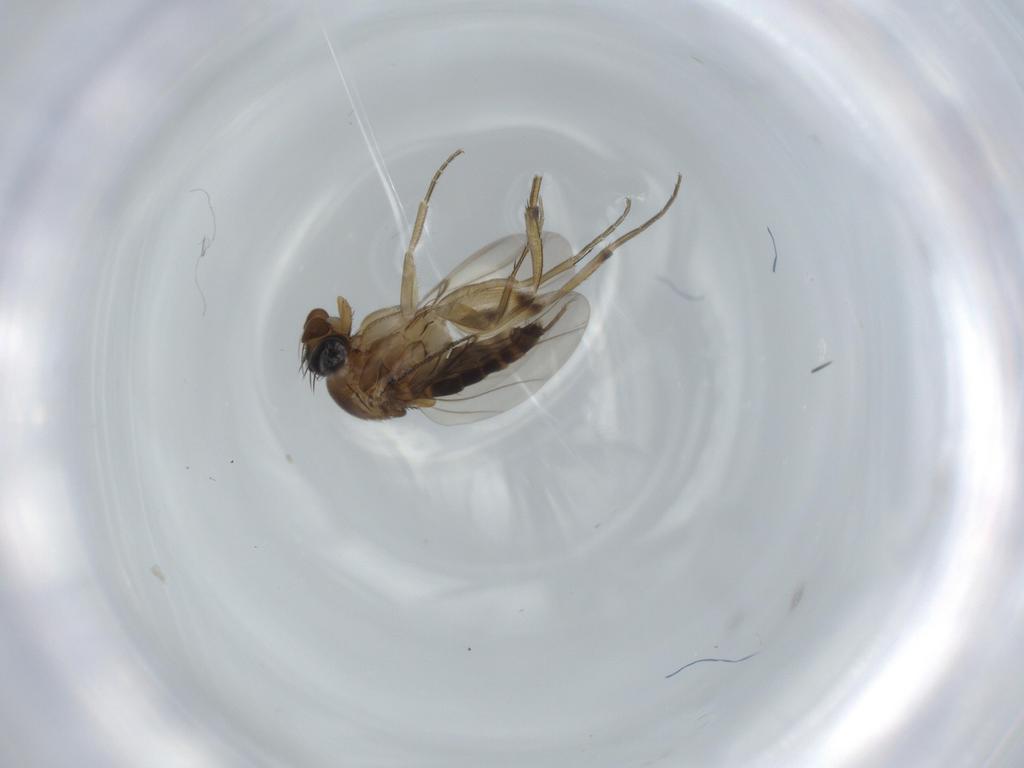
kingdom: Animalia
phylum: Arthropoda
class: Insecta
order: Diptera
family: Phoridae
